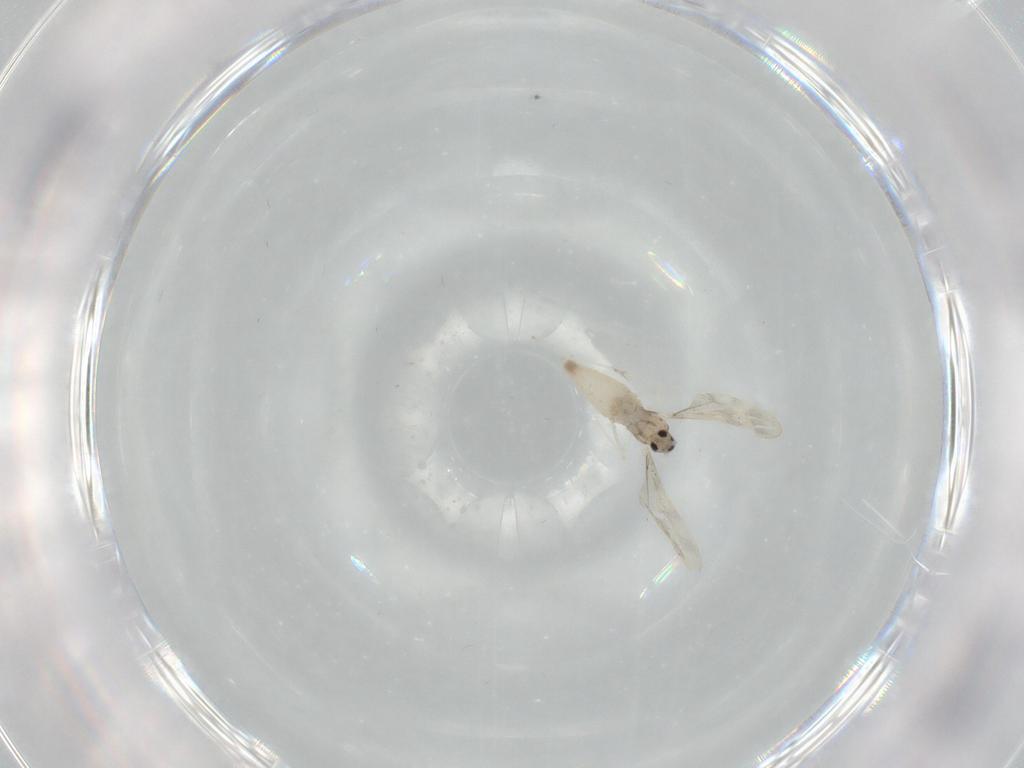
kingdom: Animalia
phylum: Arthropoda
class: Insecta
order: Diptera
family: Cecidomyiidae
